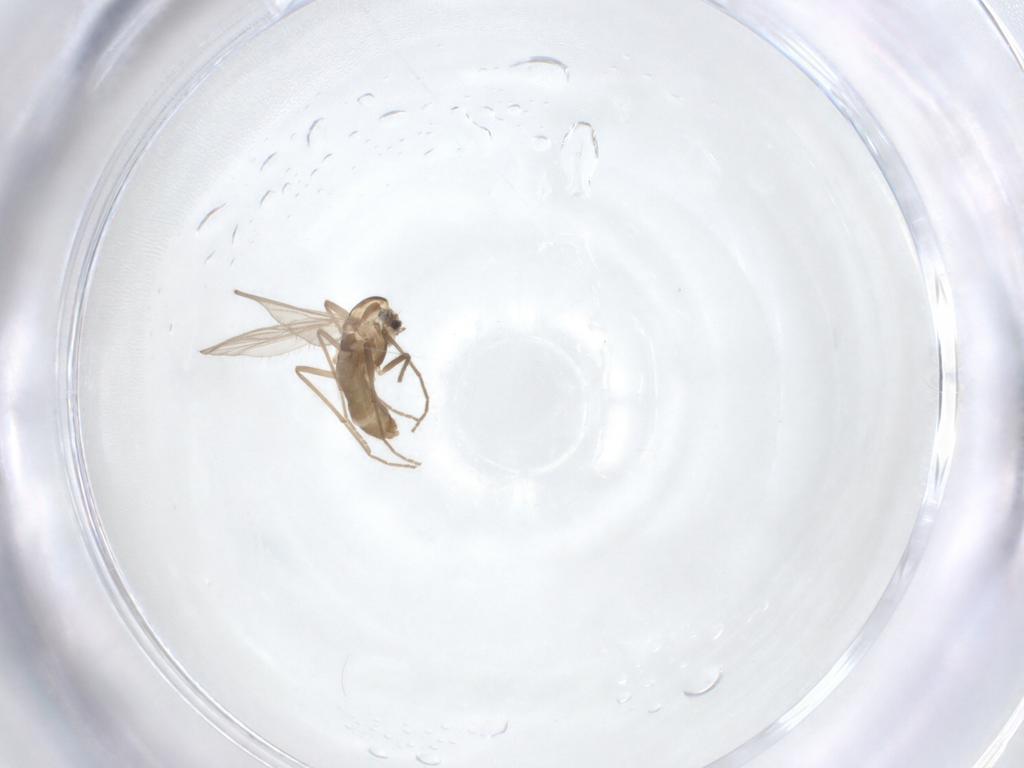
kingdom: Animalia
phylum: Arthropoda
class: Insecta
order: Diptera
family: Chironomidae
